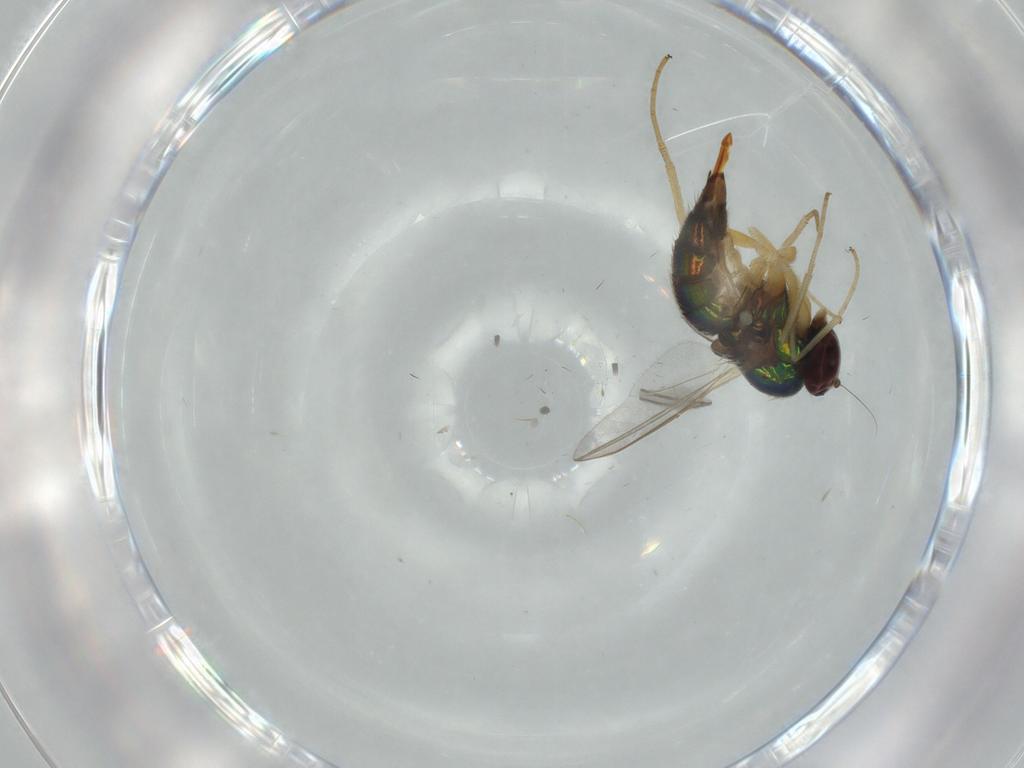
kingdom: Animalia
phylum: Arthropoda
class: Insecta
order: Diptera
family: Dolichopodidae
